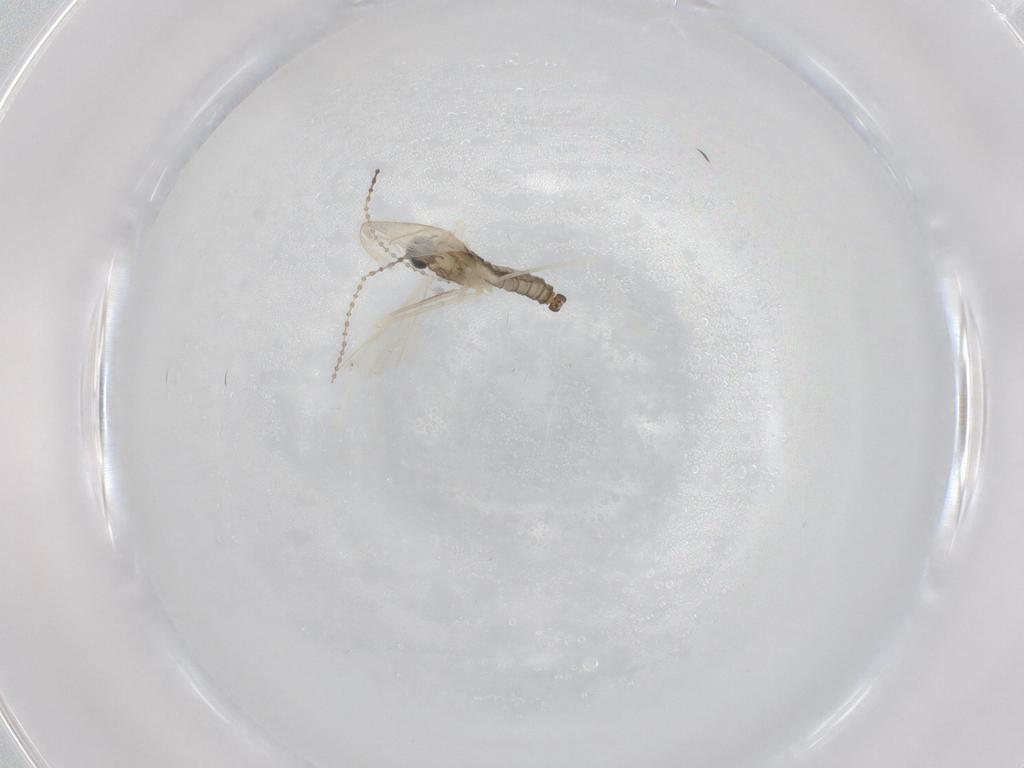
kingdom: Animalia
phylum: Arthropoda
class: Insecta
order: Diptera
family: Cecidomyiidae
